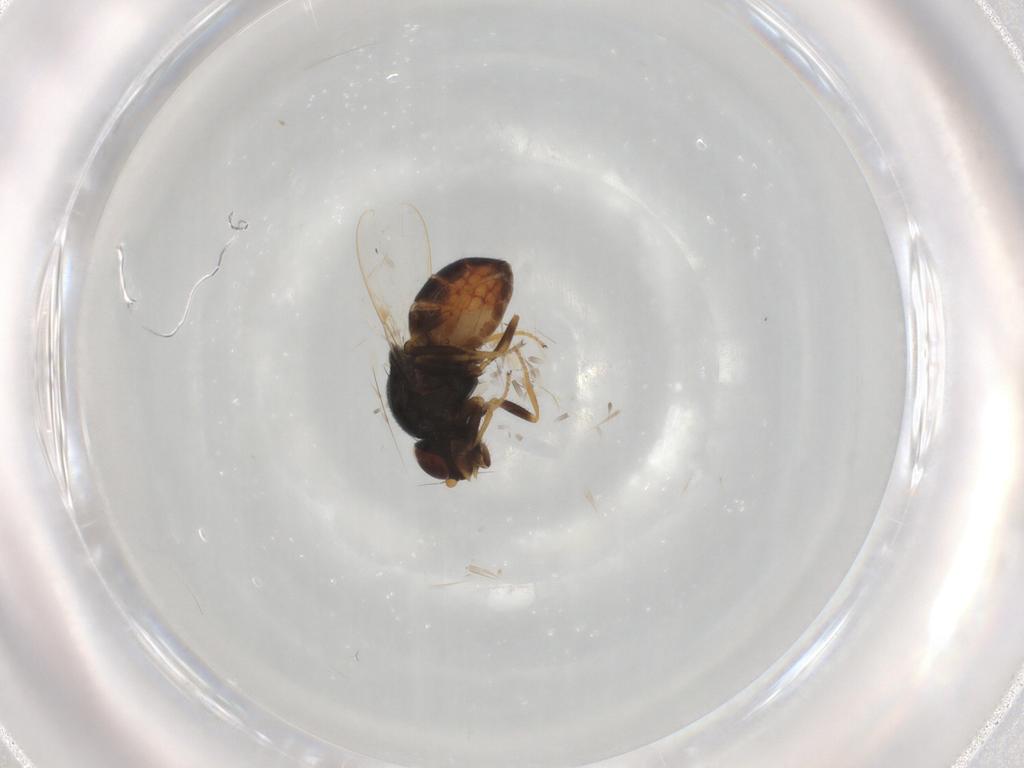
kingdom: Animalia
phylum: Arthropoda
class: Insecta
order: Diptera
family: Chloropidae
